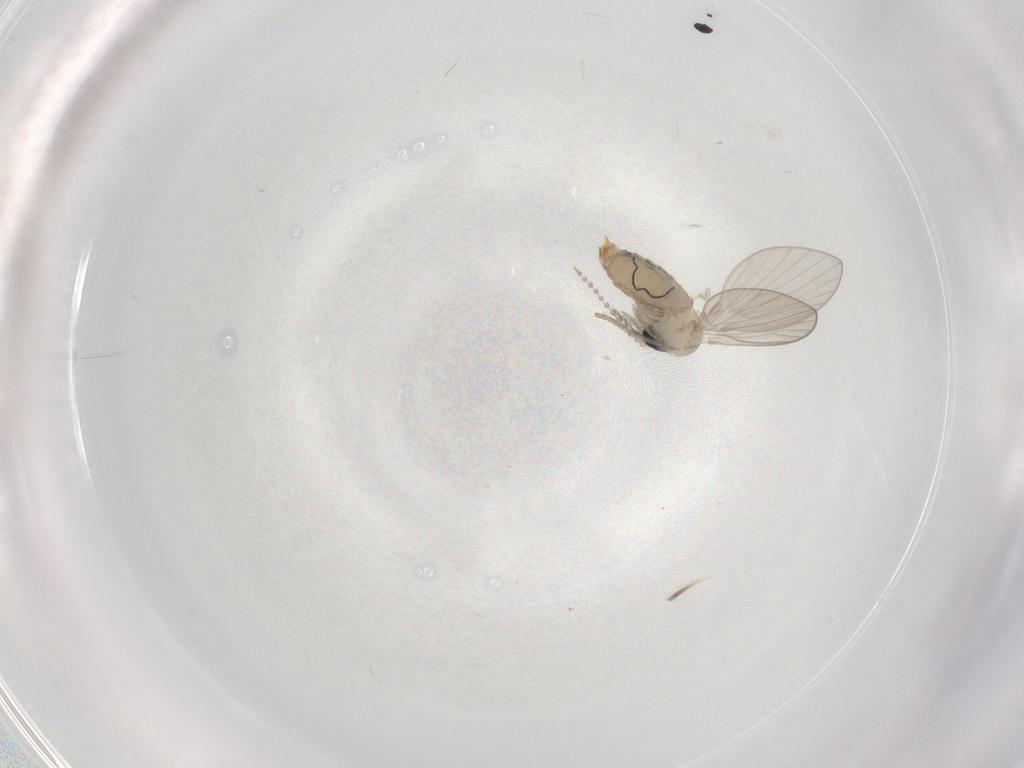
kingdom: Animalia
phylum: Arthropoda
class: Insecta
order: Diptera
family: Psychodidae
